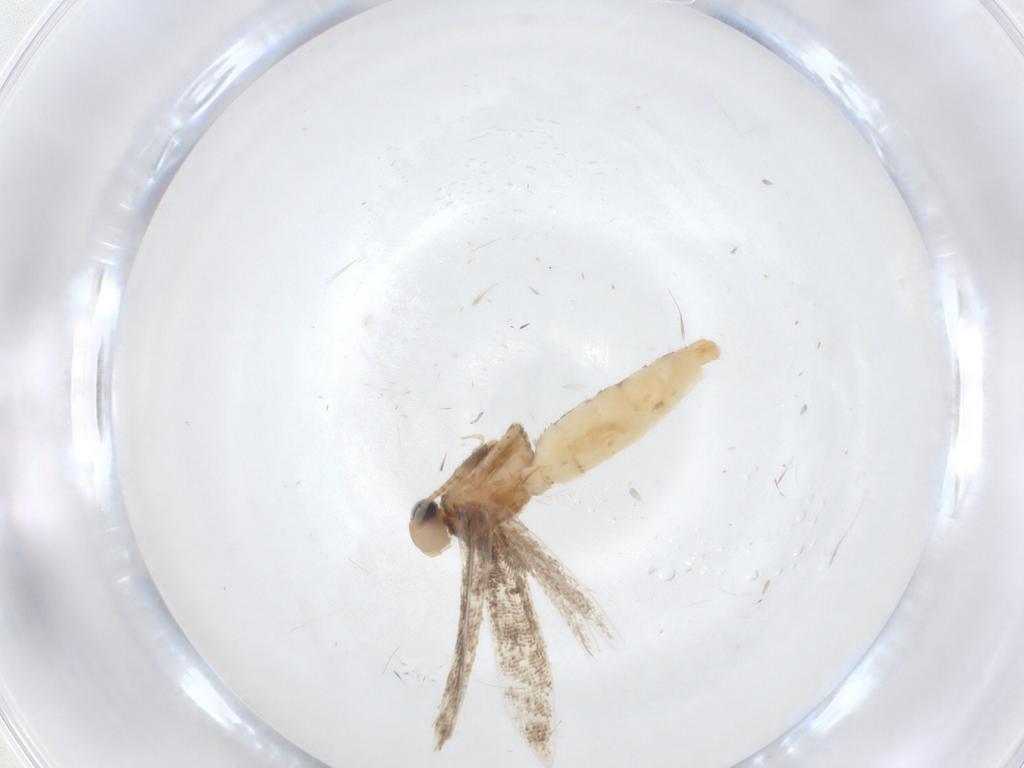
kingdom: Animalia
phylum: Arthropoda
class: Insecta
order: Lepidoptera
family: Gracillariidae
